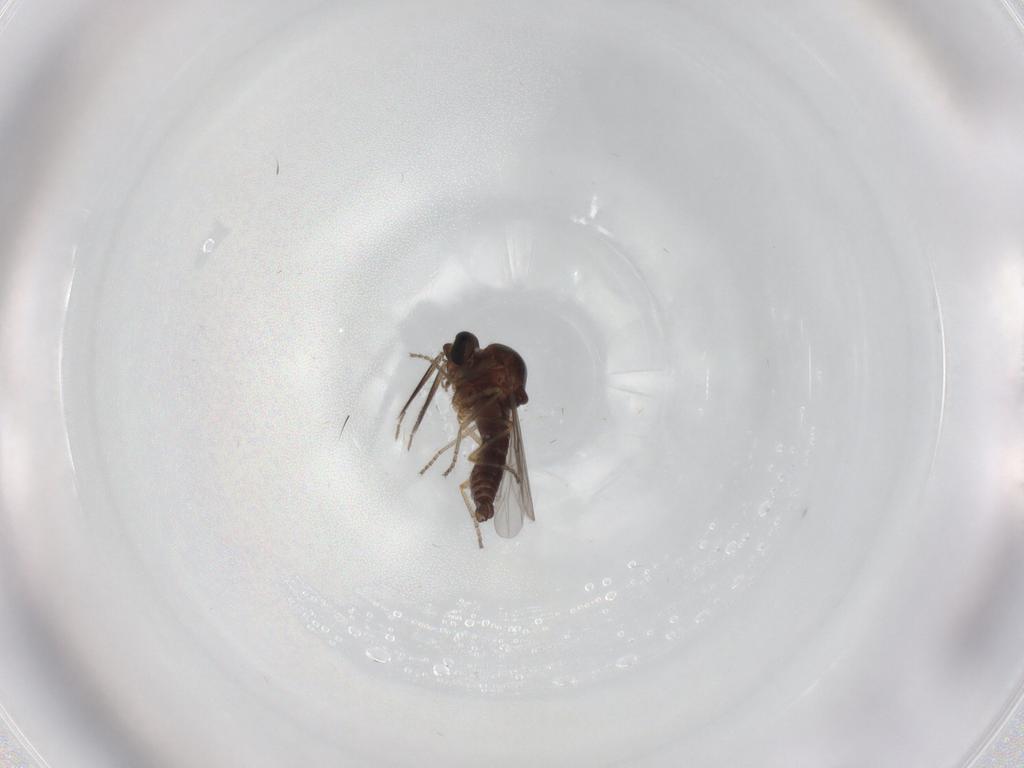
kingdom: Animalia
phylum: Arthropoda
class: Insecta
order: Diptera
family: Ceratopogonidae
